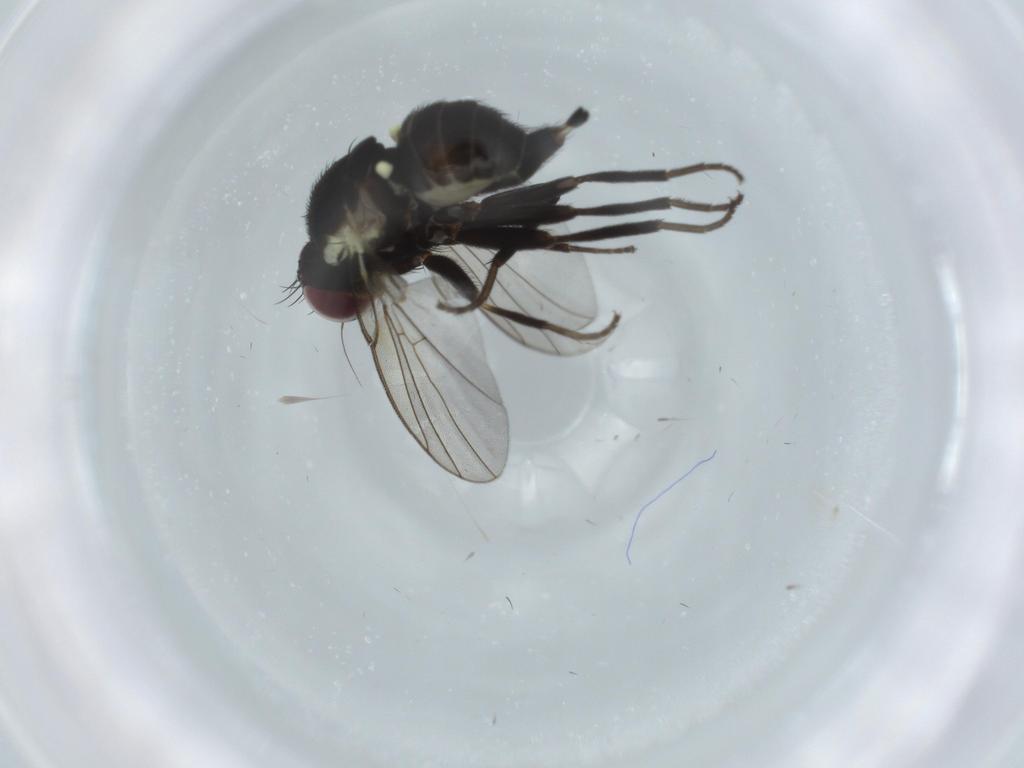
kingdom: Animalia
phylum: Arthropoda
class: Insecta
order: Diptera
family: Agromyzidae
